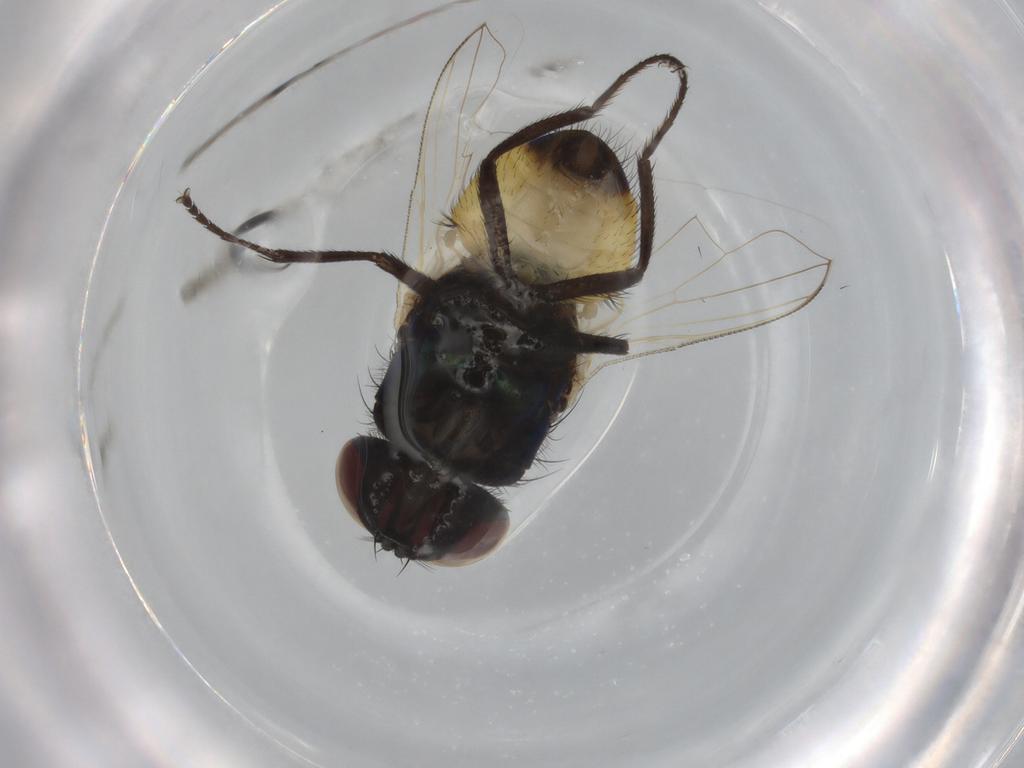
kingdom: Animalia
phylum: Arthropoda
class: Insecta
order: Diptera
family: Muscidae
